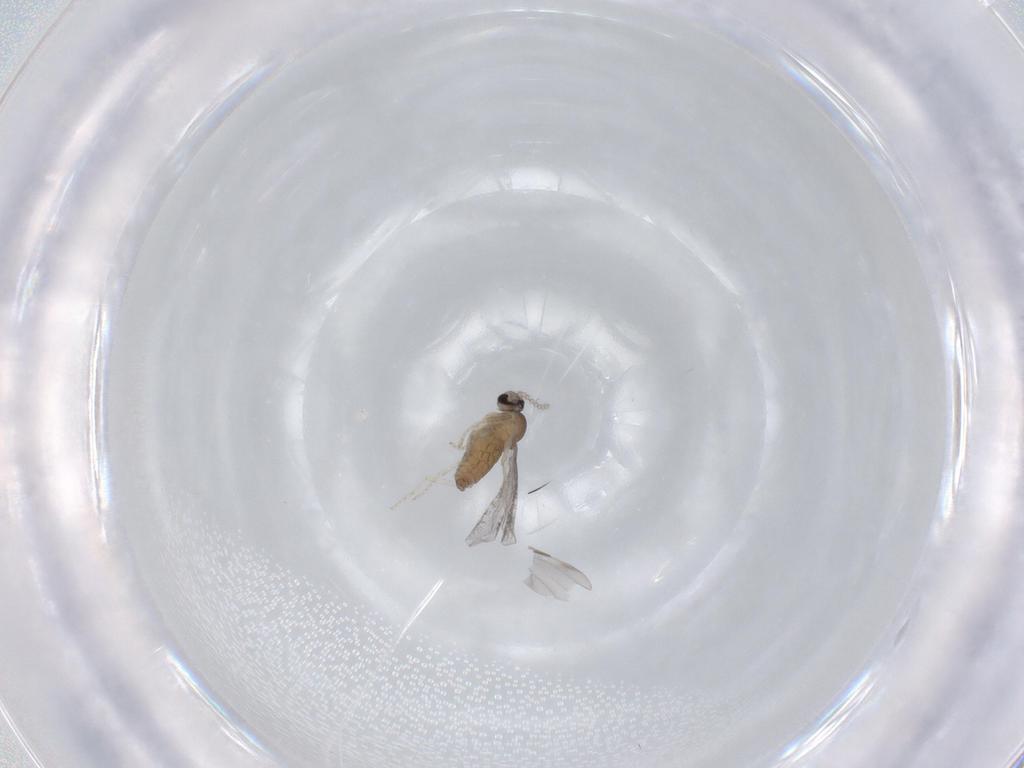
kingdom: Animalia
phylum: Arthropoda
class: Insecta
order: Diptera
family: Cecidomyiidae
